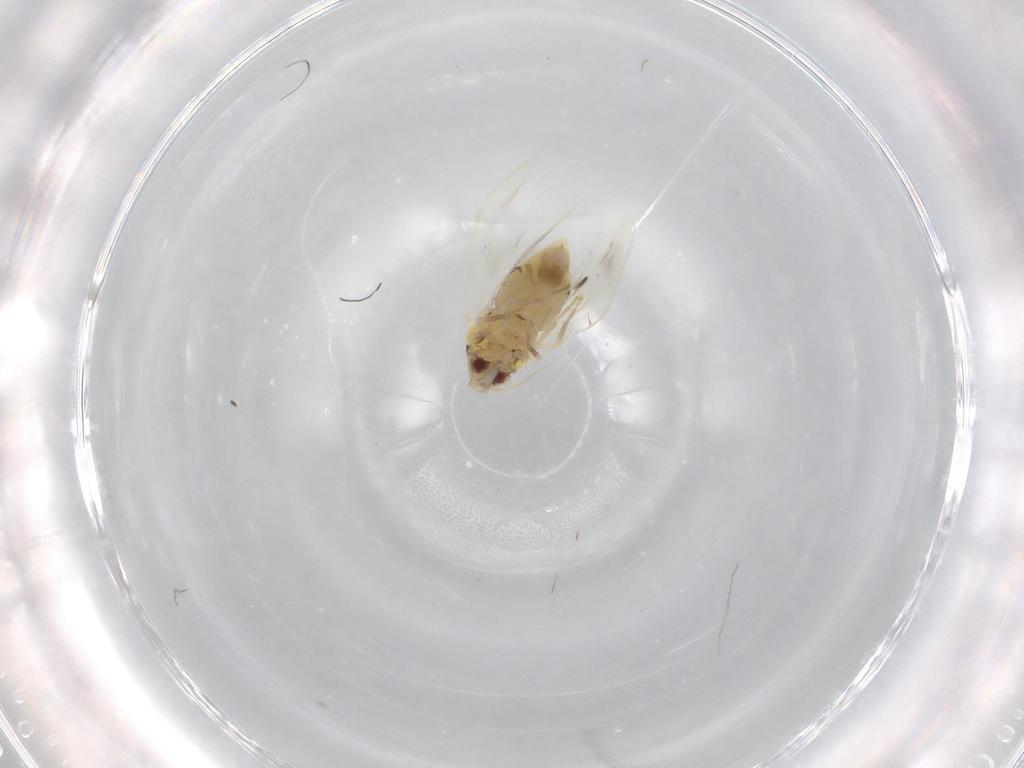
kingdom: Animalia
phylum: Arthropoda
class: Insecta
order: Hemiptera
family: Aleyrodidae
